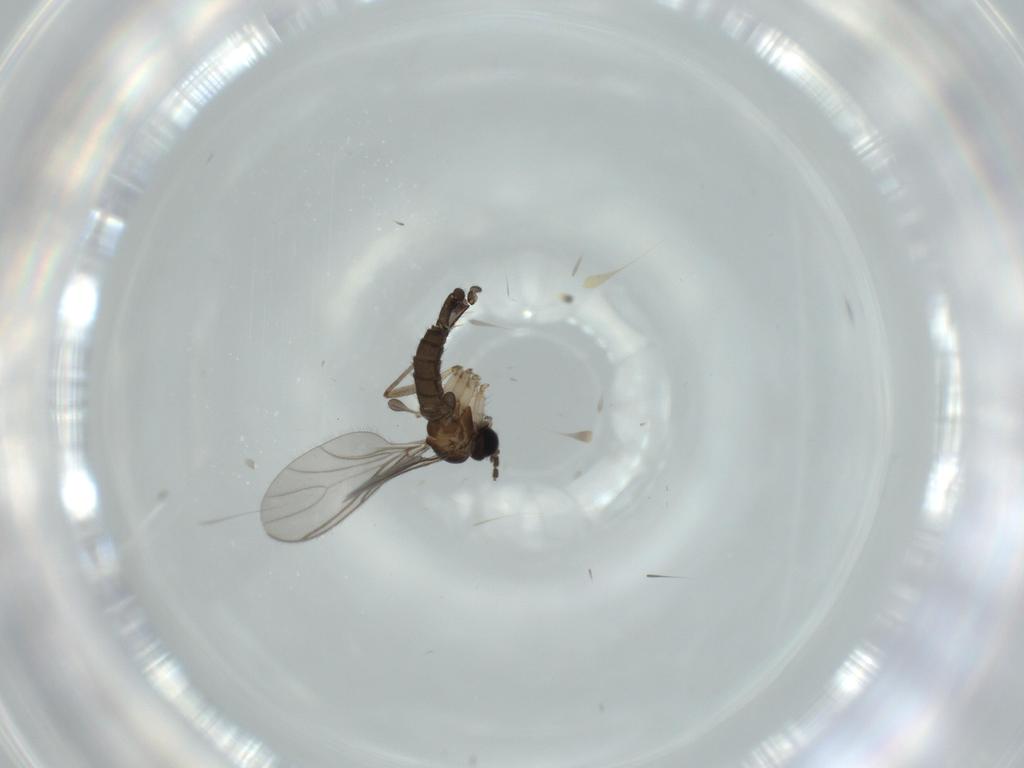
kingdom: Animalia
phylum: Arthropoda
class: Insecta
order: Diptera
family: Sciaridae
